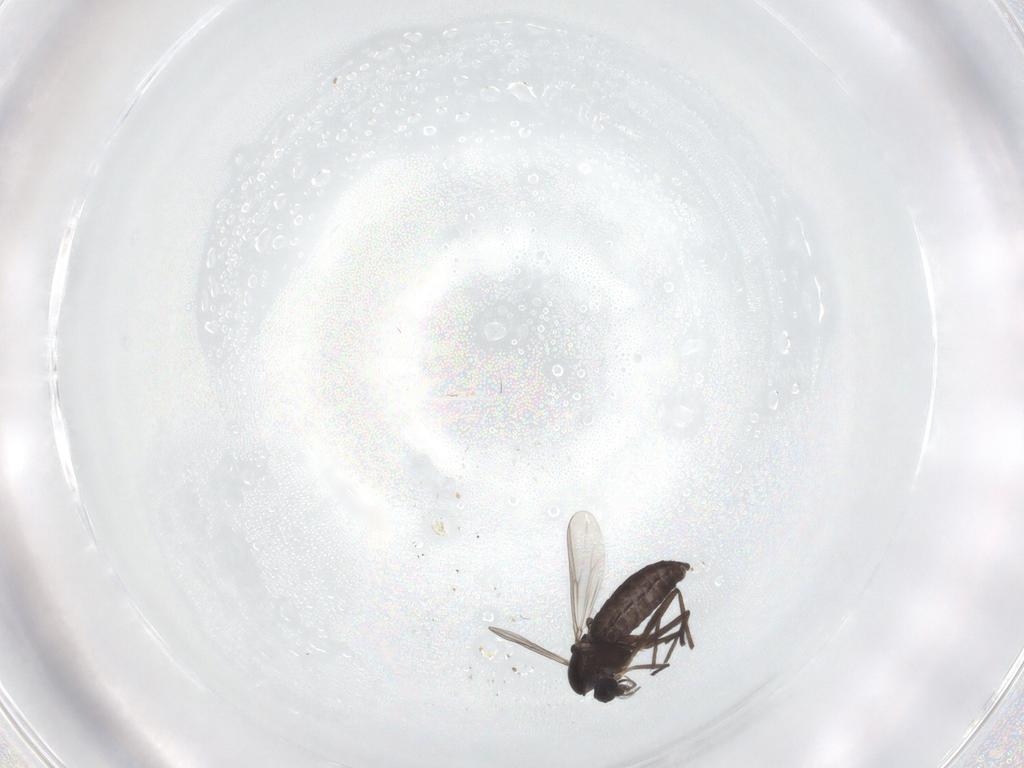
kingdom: Animalia
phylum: Arthropoda
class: Insecta
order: Diptera
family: Chironomidae
